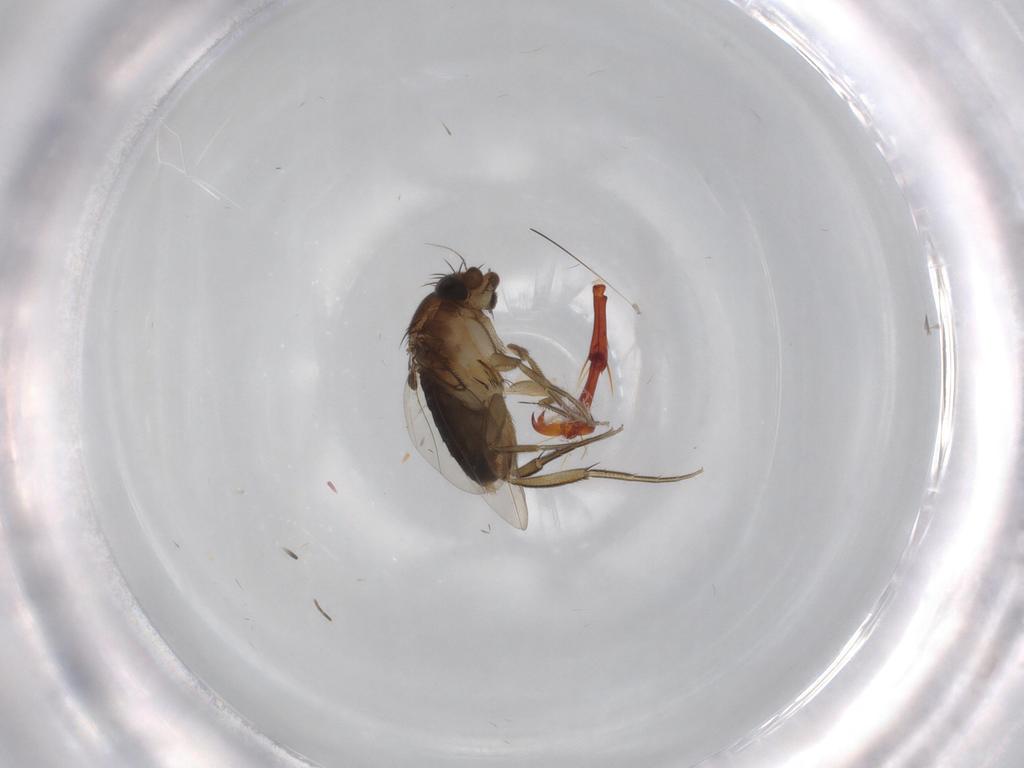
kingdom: Animalia
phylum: Arthropoda
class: Insecta
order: Diptera
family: Phoridae
